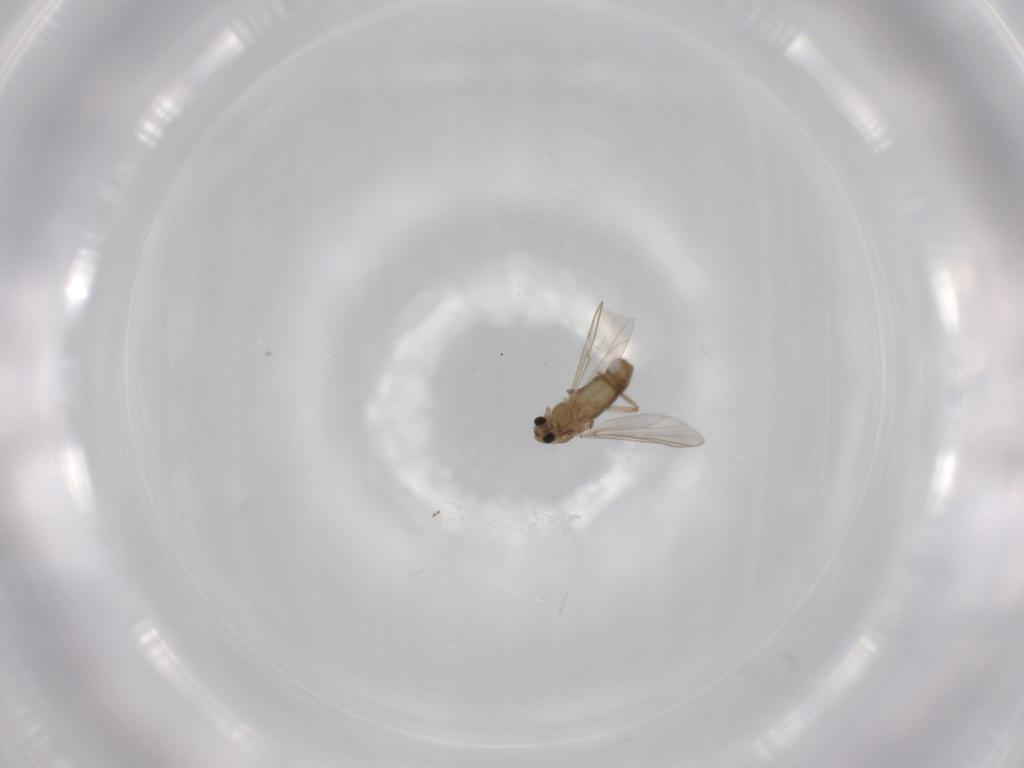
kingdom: Animalia
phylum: Arthropoda
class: Insecta
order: Diptera
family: Cecidomyiidae
